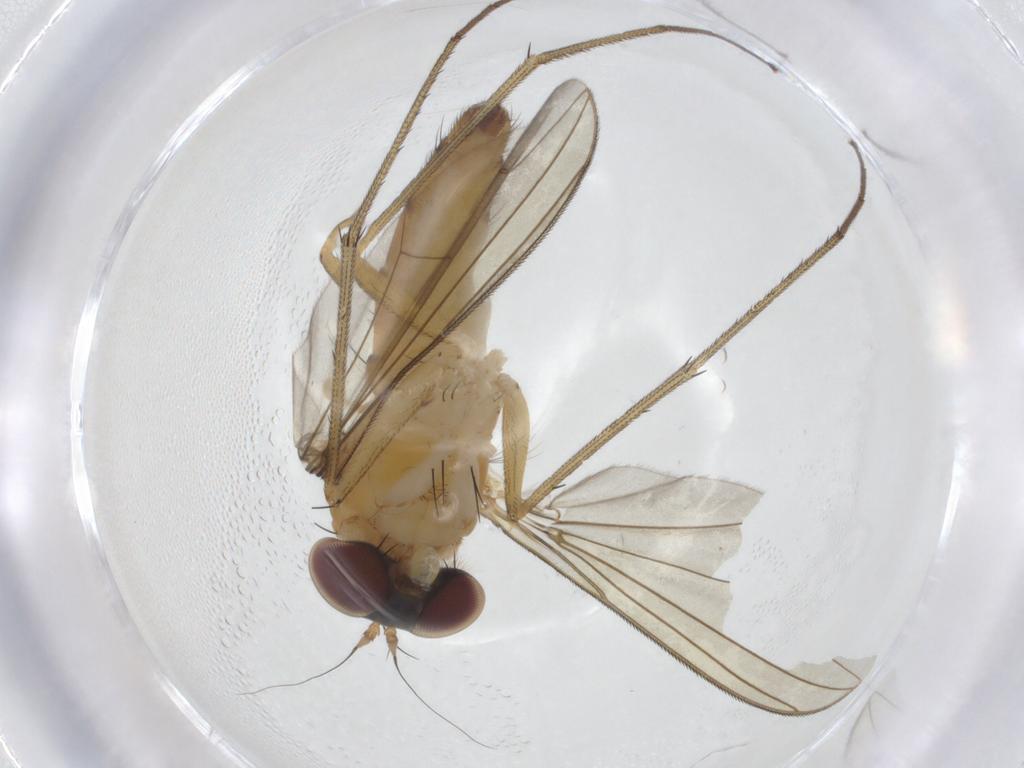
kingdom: Animalia
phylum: Arthropoda
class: Insecta
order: Diptera
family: Dolichopodidae
